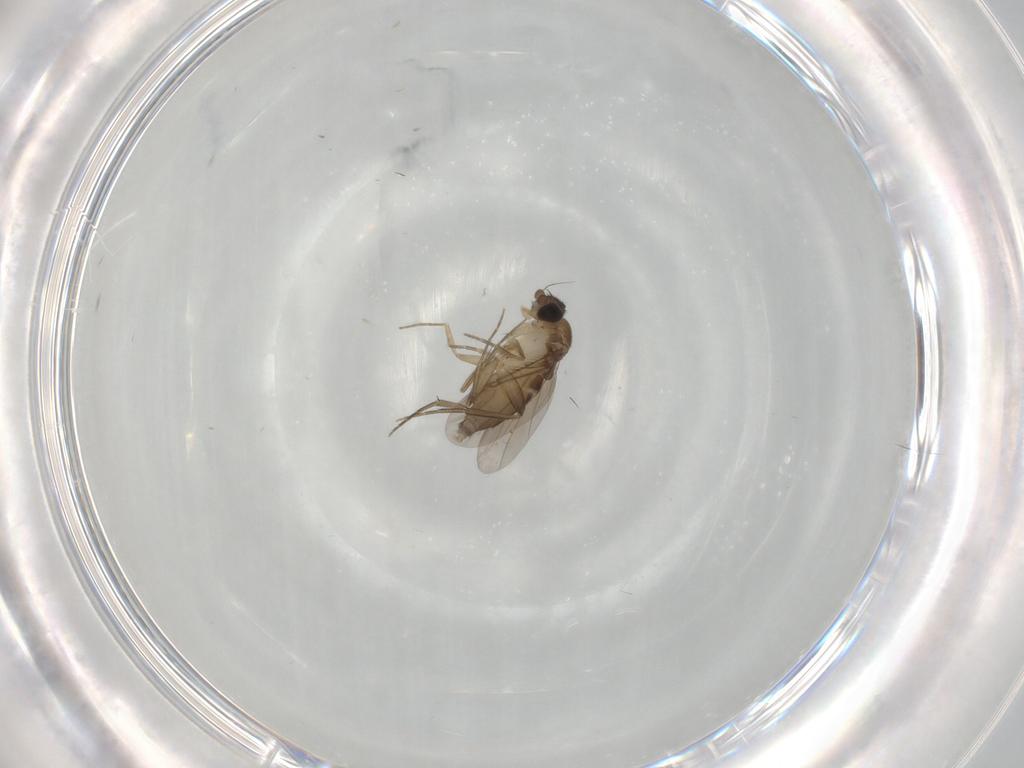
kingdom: Animalia
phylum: Arthropoda
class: Insecta
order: Diptera
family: Phoridae
